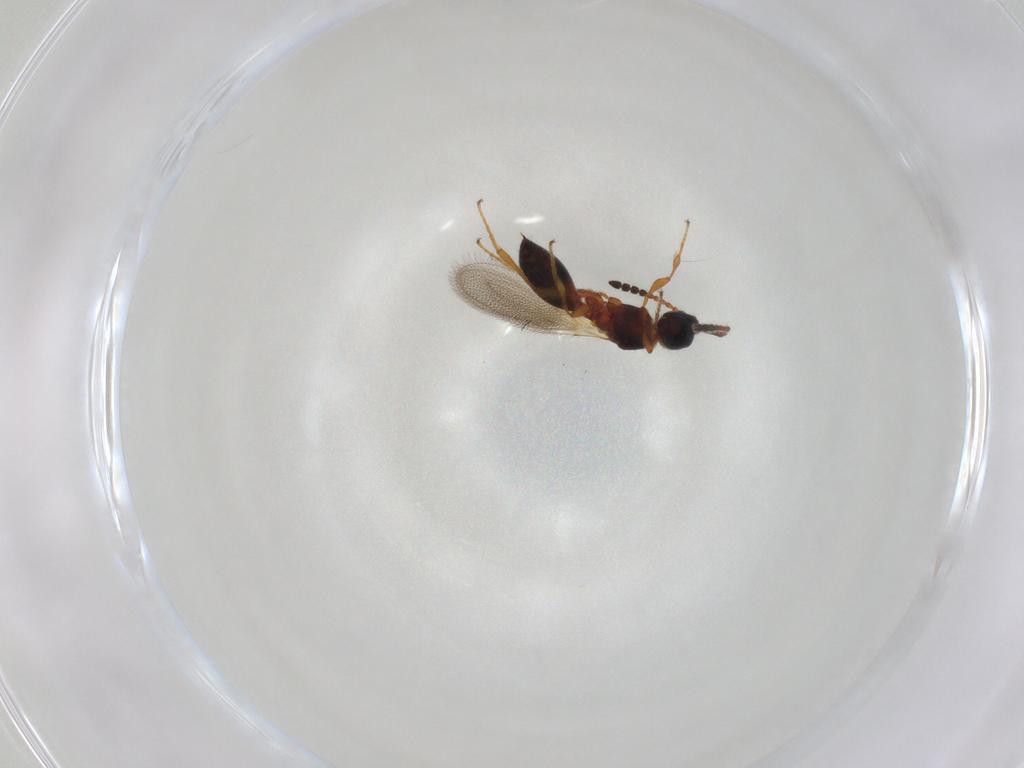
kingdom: Animalia
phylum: Arthropoda
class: Insecta
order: Hymenoptera
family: Diapriidae
